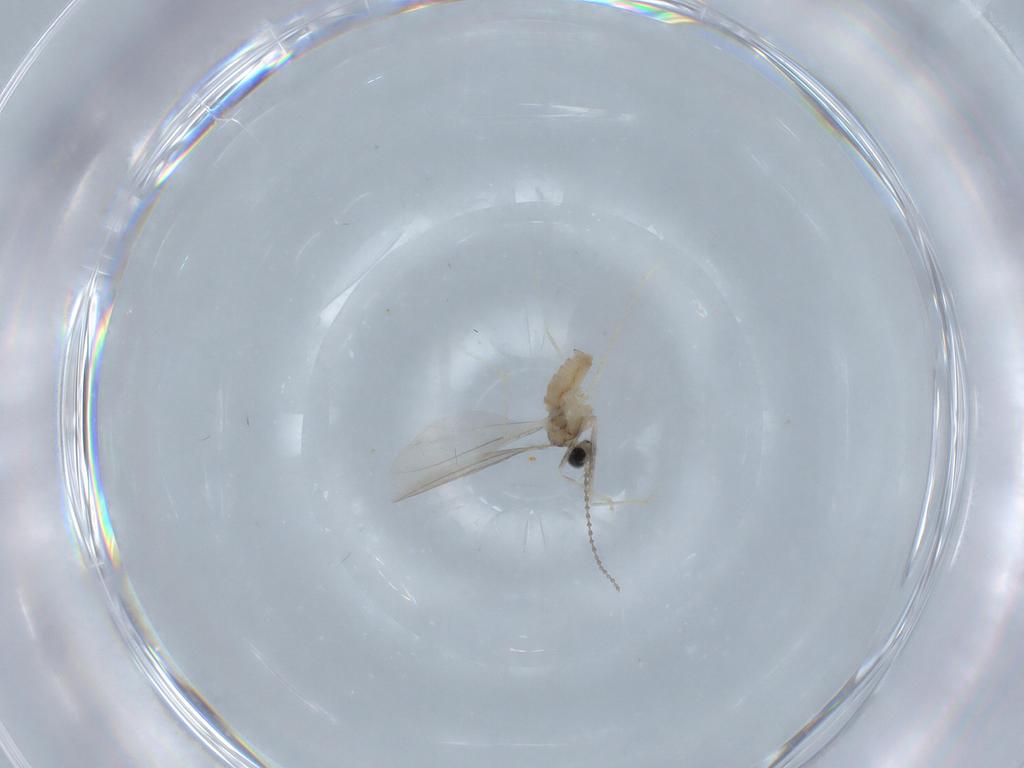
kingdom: Animalia
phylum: Arthropoda
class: Insecta
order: Diptera
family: Cecidomyiidae
